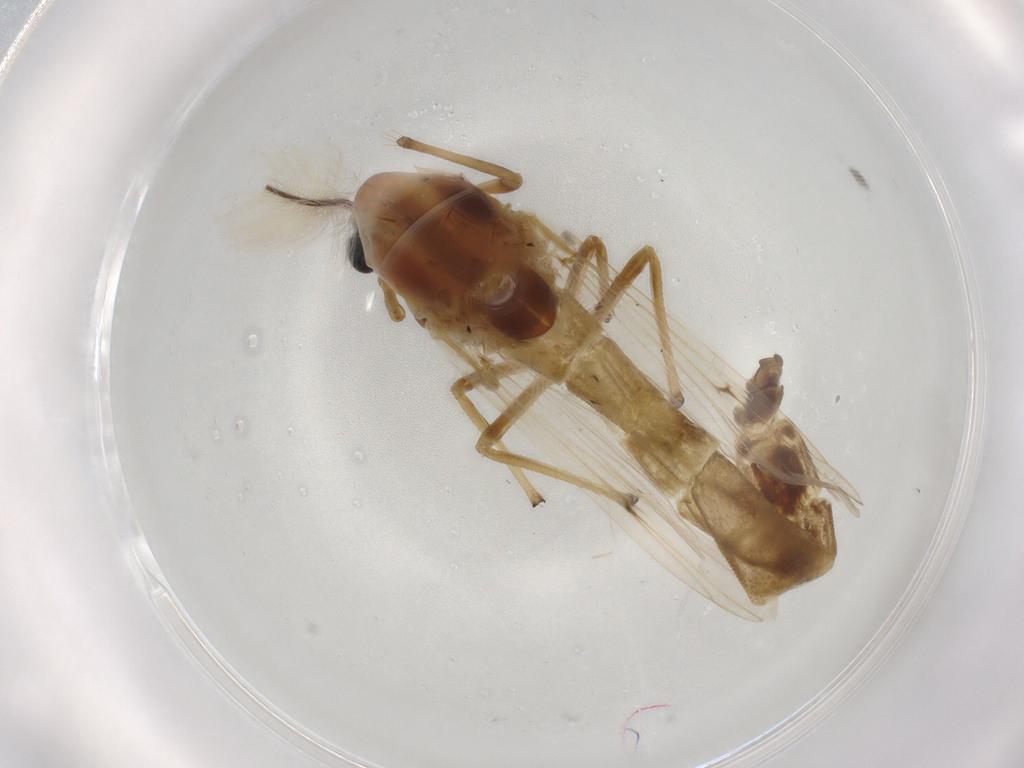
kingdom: Animalia
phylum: Arthropoda
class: Insecta
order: Diptera
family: Chironomidae
